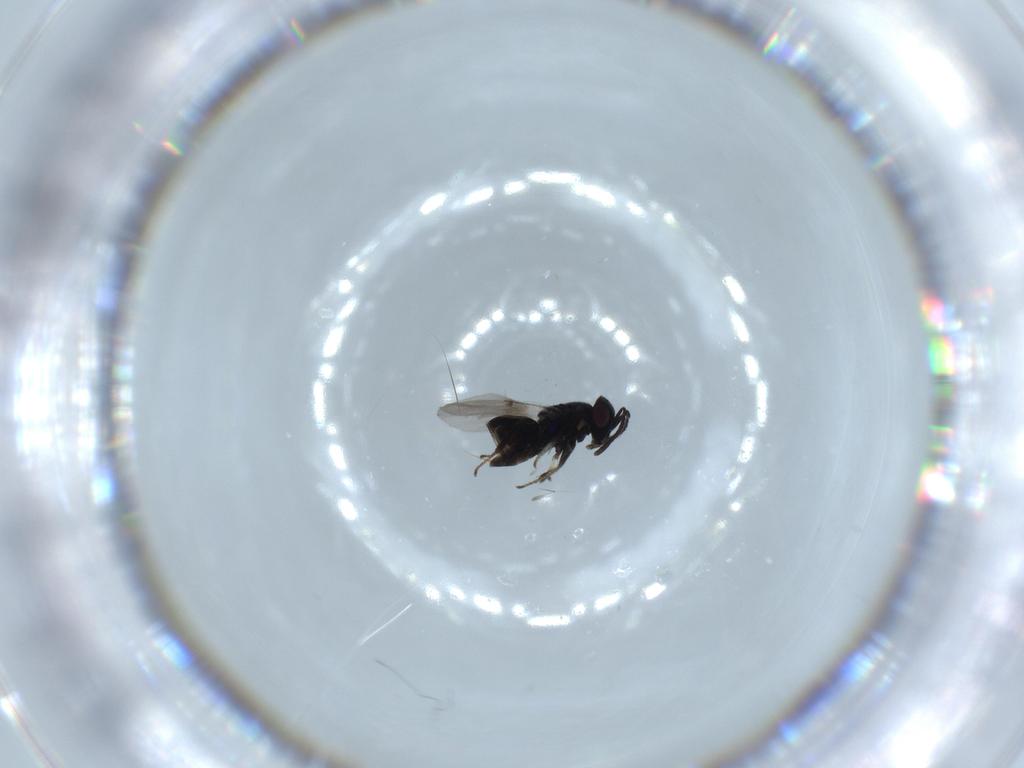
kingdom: Animalia
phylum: Arthropoda
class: Insecta
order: Hymenoptera
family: Encyrtidae
